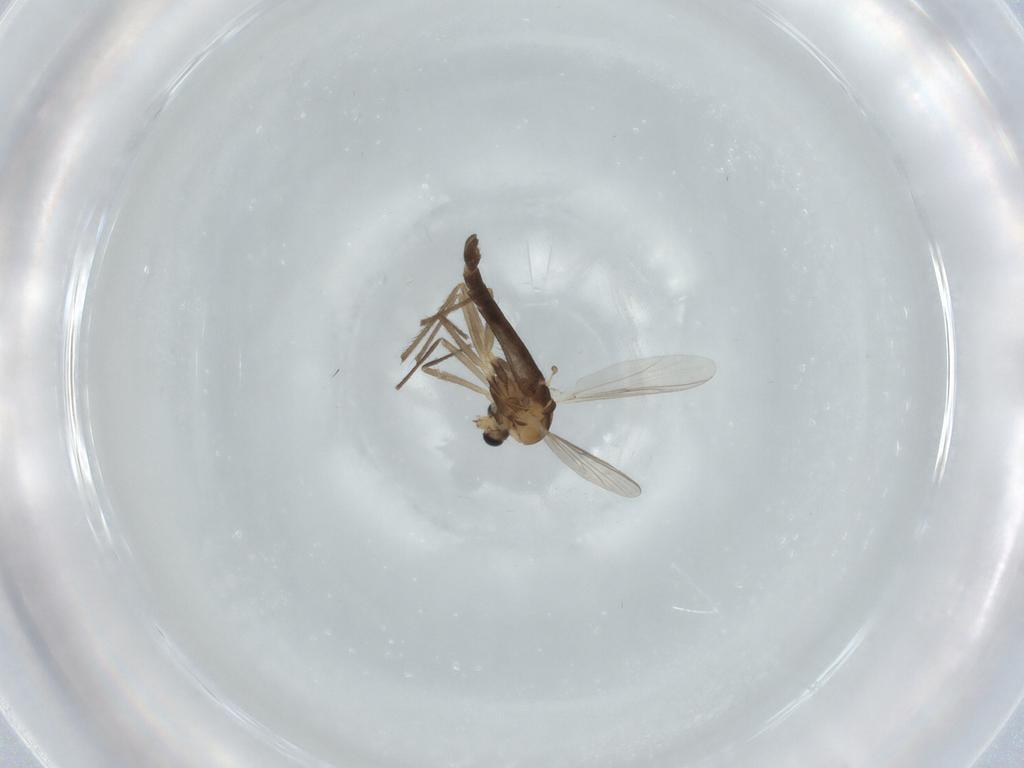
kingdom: Animalia
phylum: Arthropoda
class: Insecta
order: Diptera
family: Chironomidae
